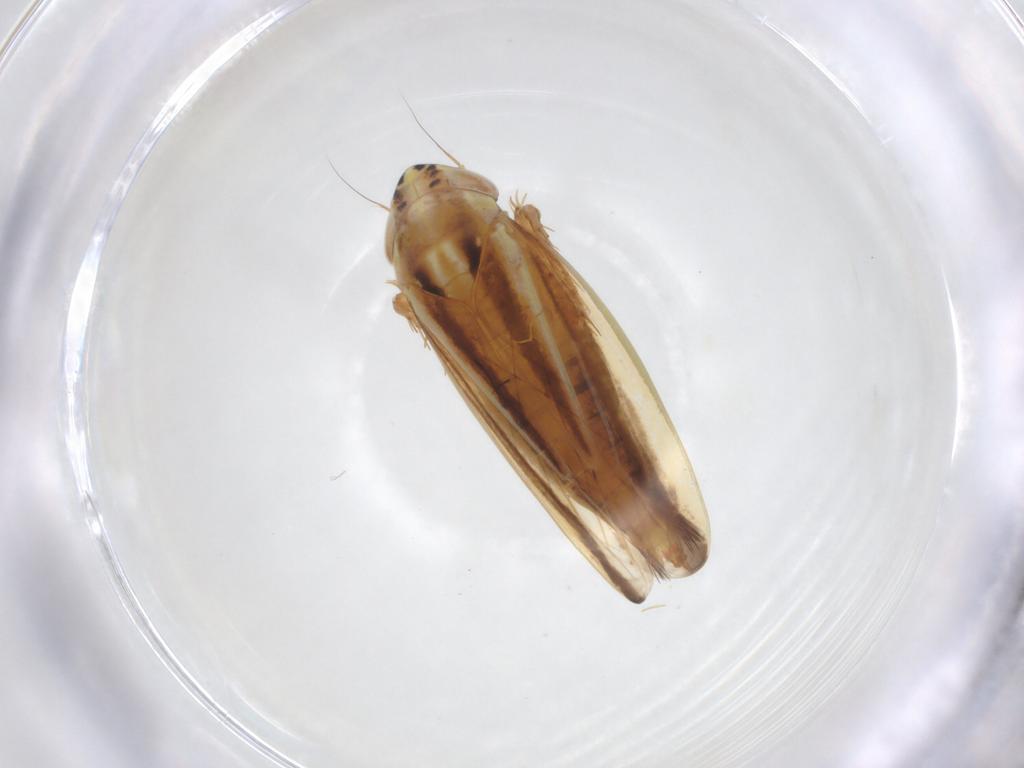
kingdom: Animalia
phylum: Arthropoda
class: Insecta
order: Hemiptera
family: Cicadellidae
